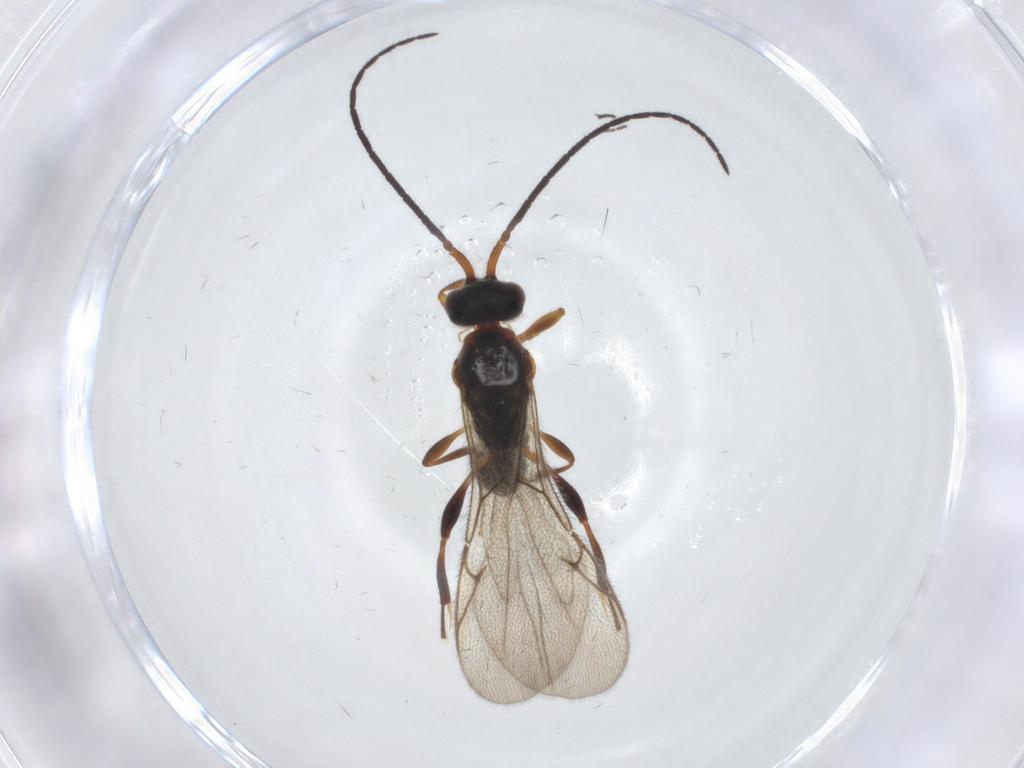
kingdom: Animalia
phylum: Arthropoda
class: Insecta
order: Hymenoptera
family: Diapriidae
